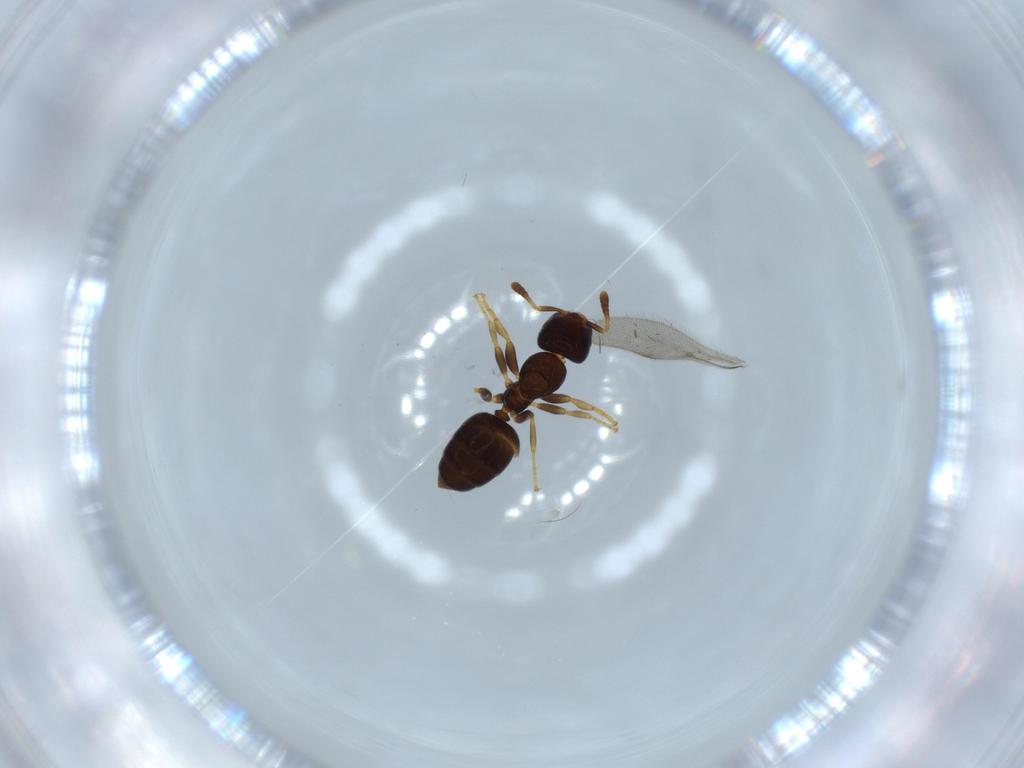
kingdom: Animalia
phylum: Arthropoda
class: Insecta
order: Hymenoptera
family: Formicidae
